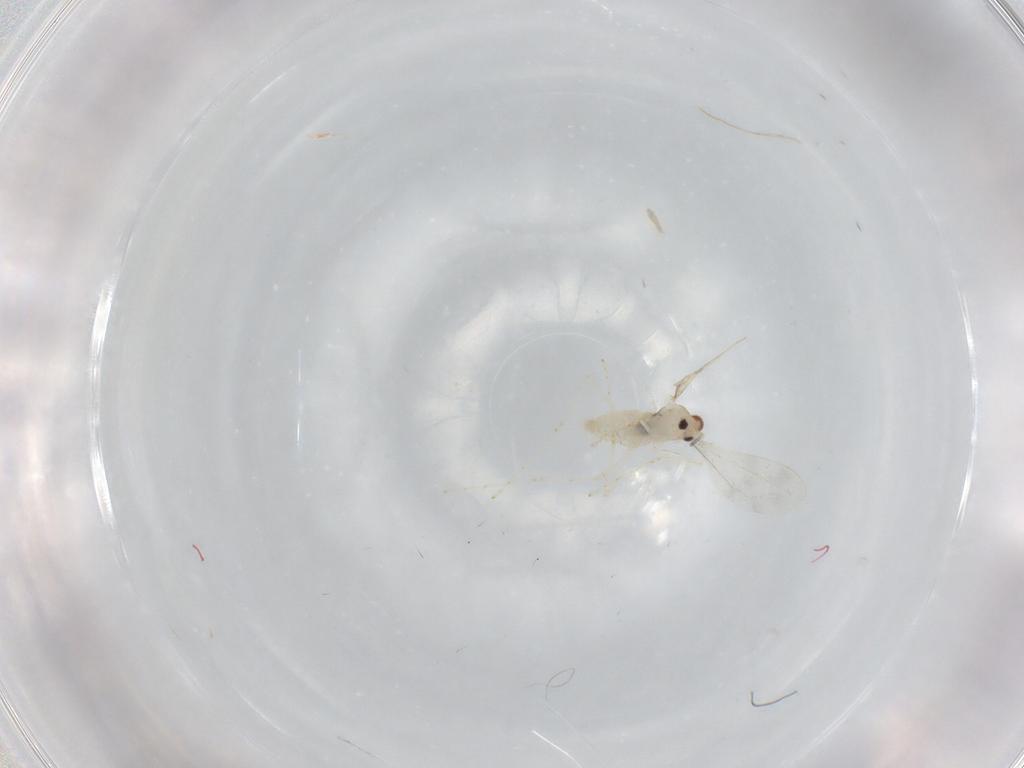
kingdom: Animalia
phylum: Arthropoda
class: Insecta
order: Diptera
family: Cecidomyiidae
